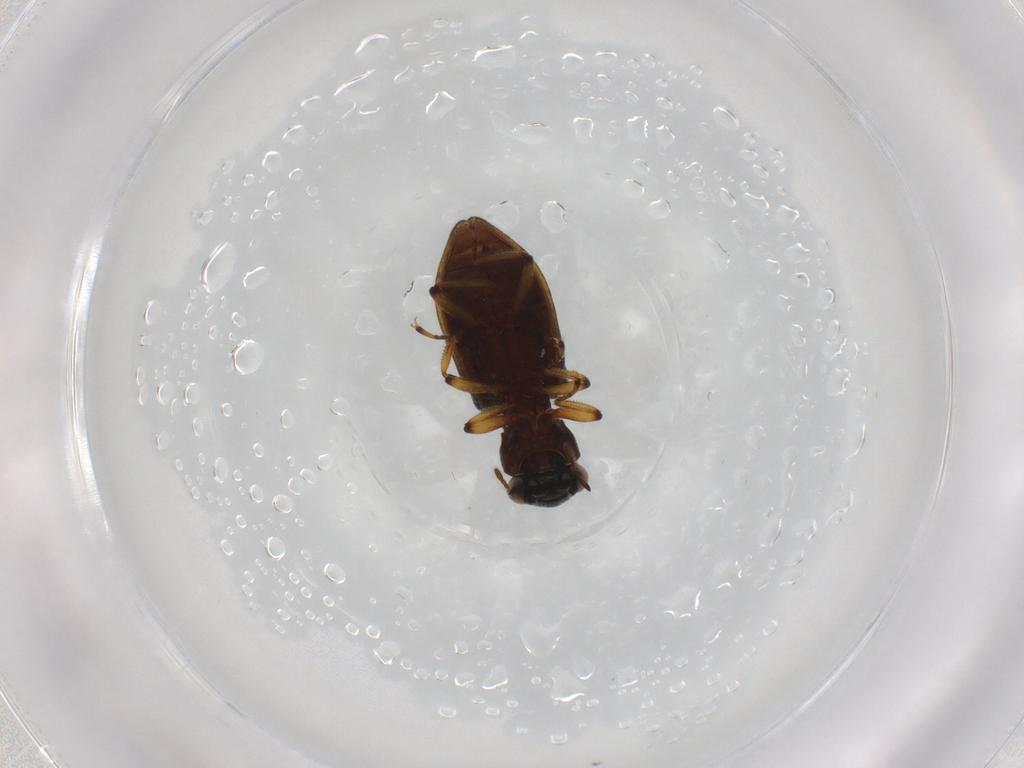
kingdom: Animalia
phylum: Arthropoda
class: Insecta
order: Coleoptera
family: Hydrophilidae
